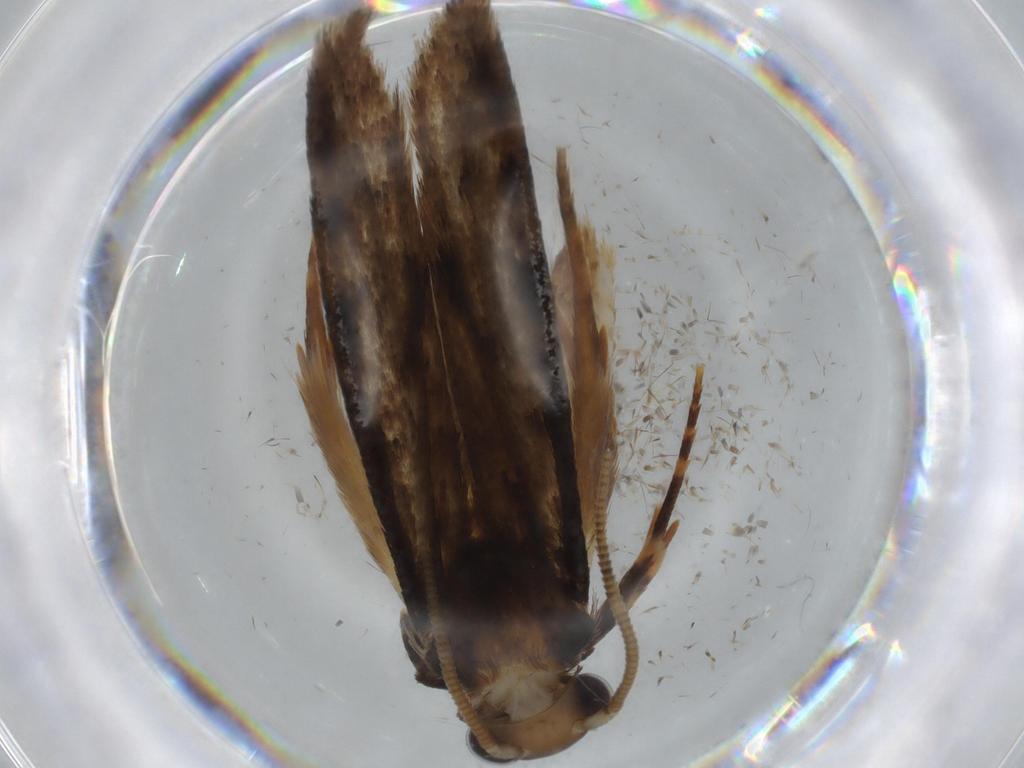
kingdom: Animalia
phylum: Arthropoda
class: Insecta
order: Lepidoptera
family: Tineidae
